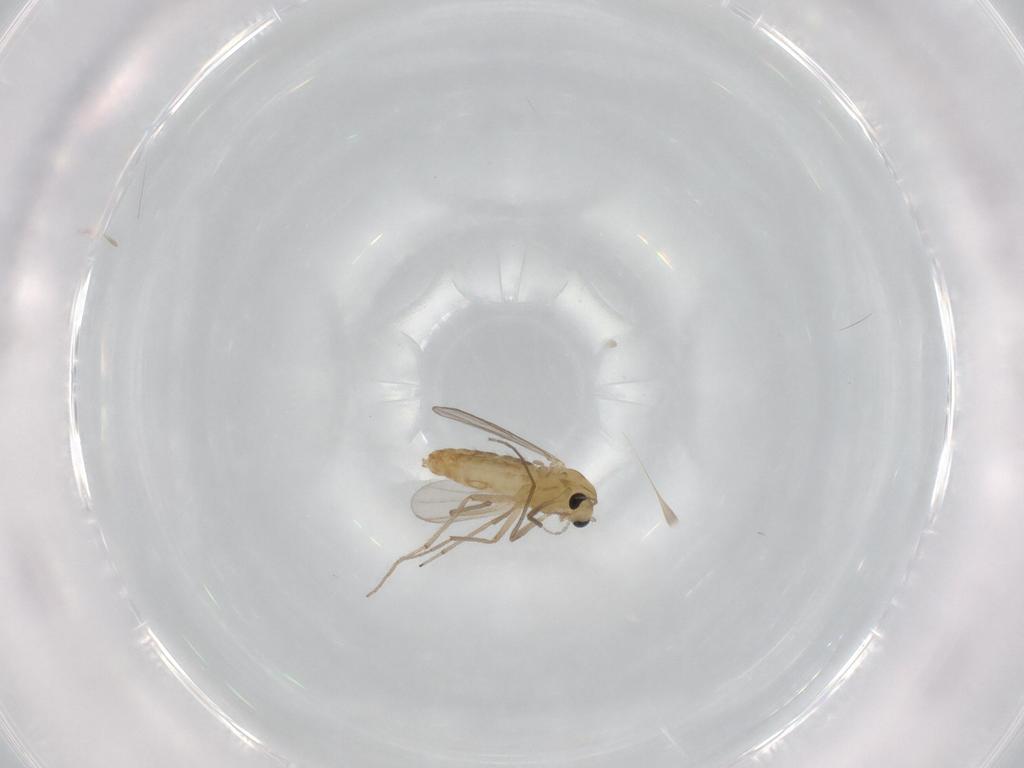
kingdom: Animalia
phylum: Arthropoda
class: Insecta
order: Diptera
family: Chironomidae
